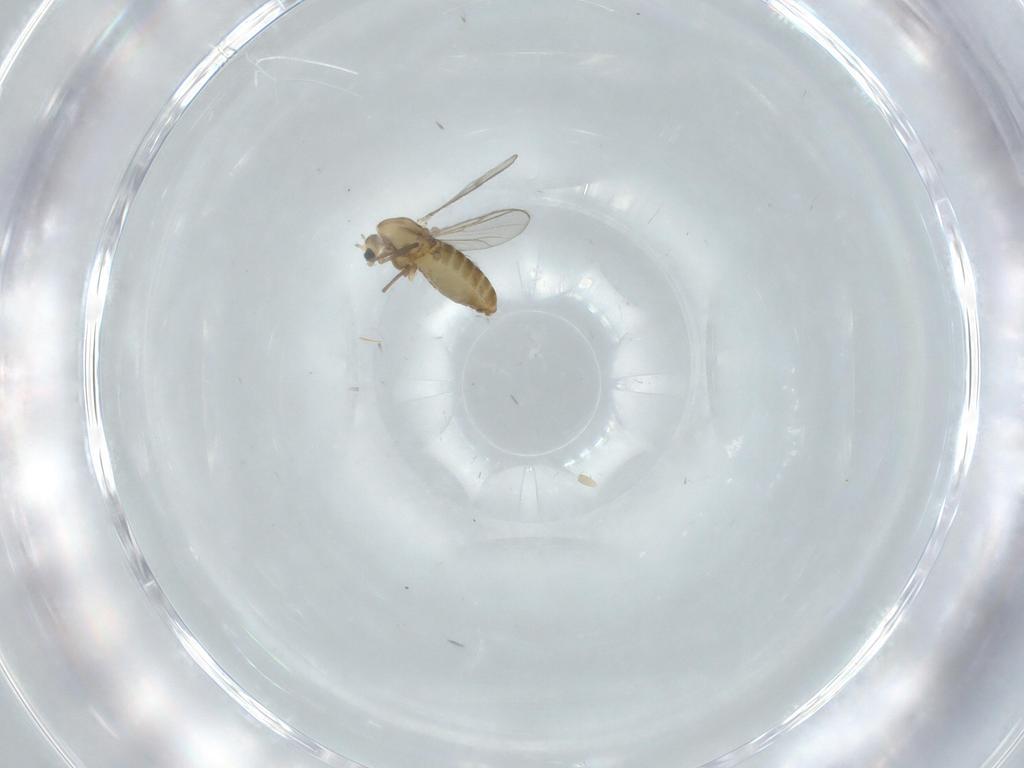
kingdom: Animalia
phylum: Arthropoda
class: Insecta
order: Diptera
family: Chironomidae
